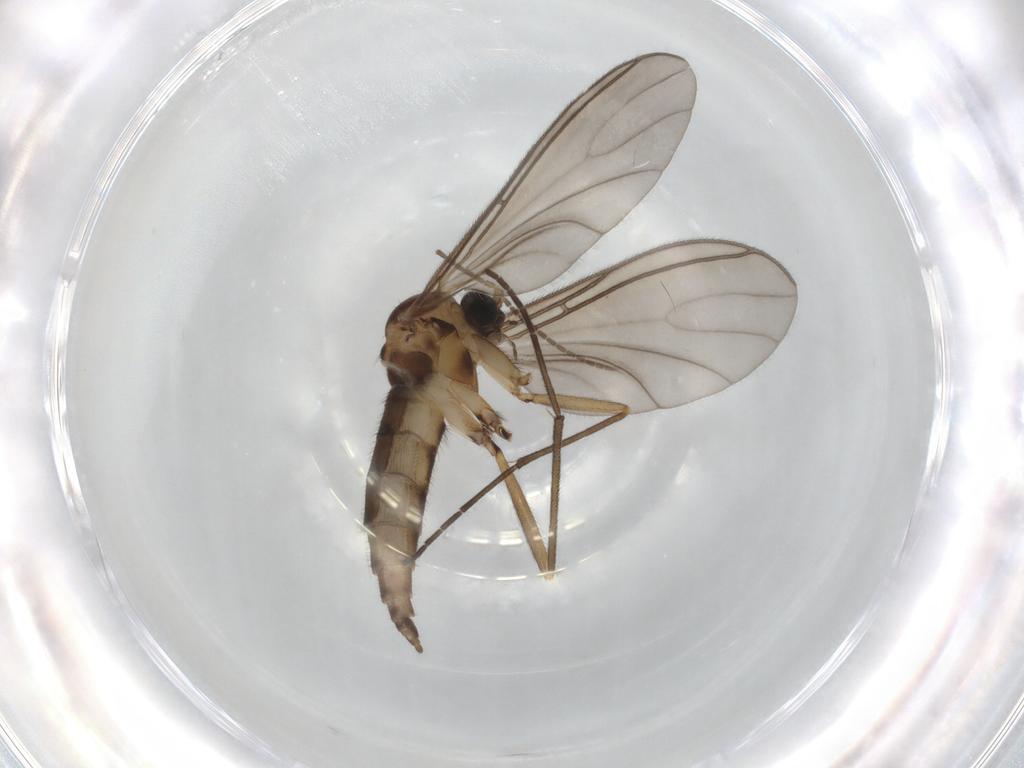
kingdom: Animalia
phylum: Arthropoda
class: Insecta
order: Diptera
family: Sciaridae
